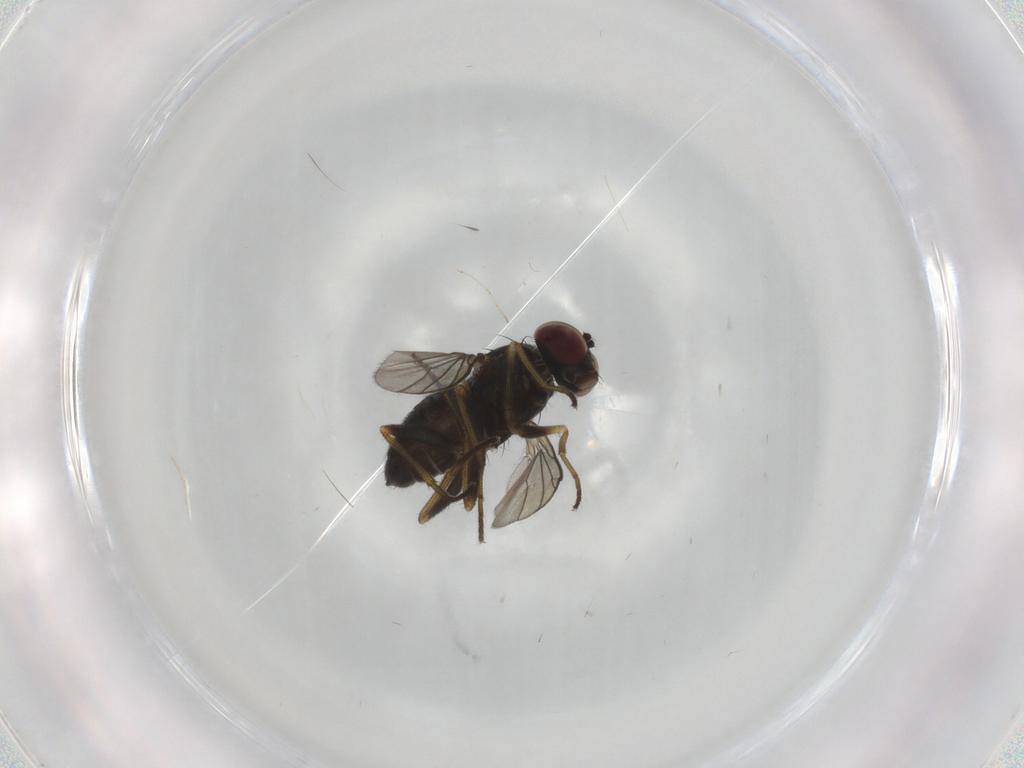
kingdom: Animalia
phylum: Arthropoda
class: Insecta
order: Diptera
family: Dolichopodidae
